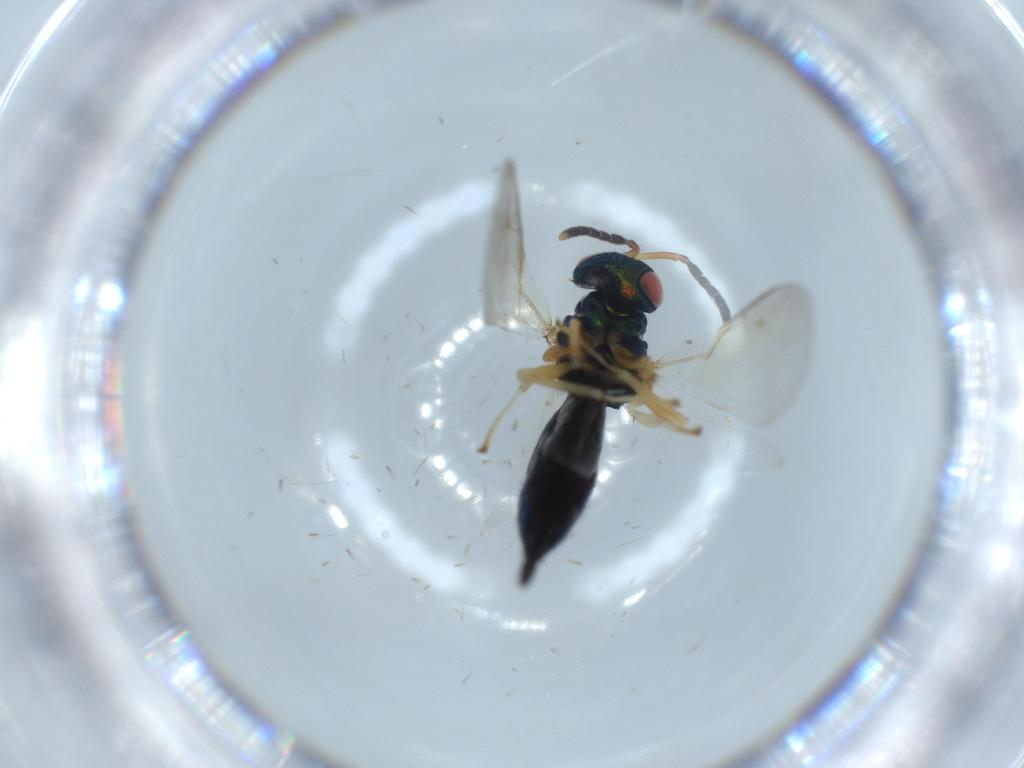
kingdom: Animalia
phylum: Arthropoda
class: Insecta
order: Hymenoptera
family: Pteromalidae
